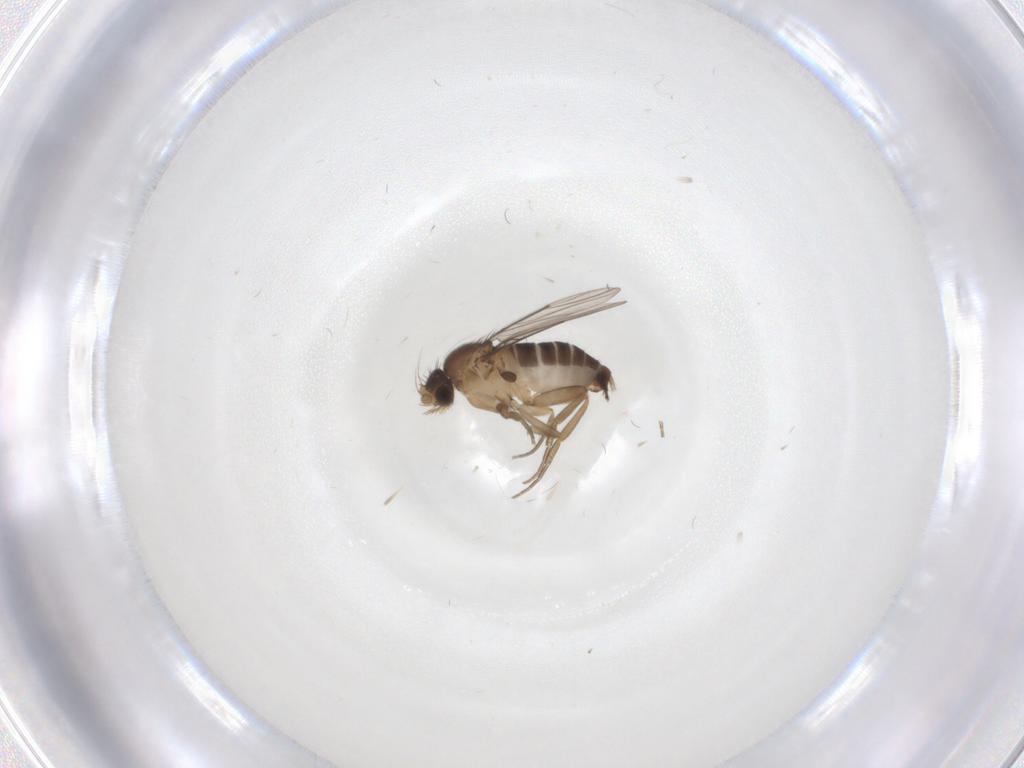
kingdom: Animalia
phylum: Arthropoda
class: Insecta
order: Diptera
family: Phoridae
